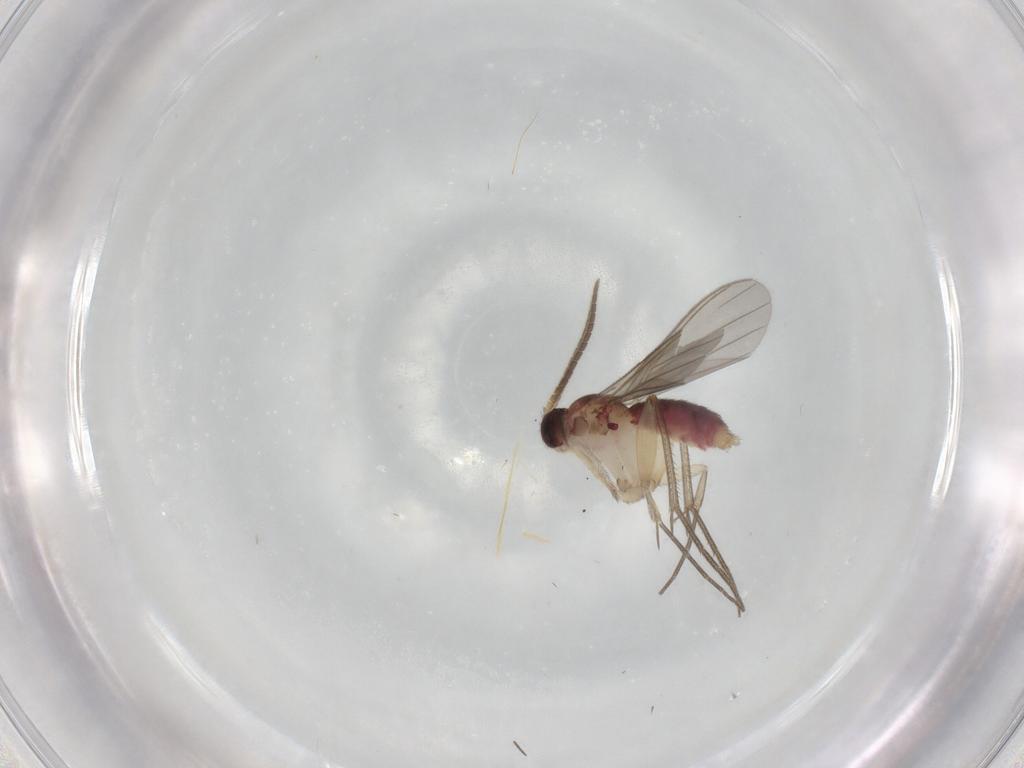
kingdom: Animalia
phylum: Arthropoda
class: Insecta
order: Diptera
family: Mycetophilidae
